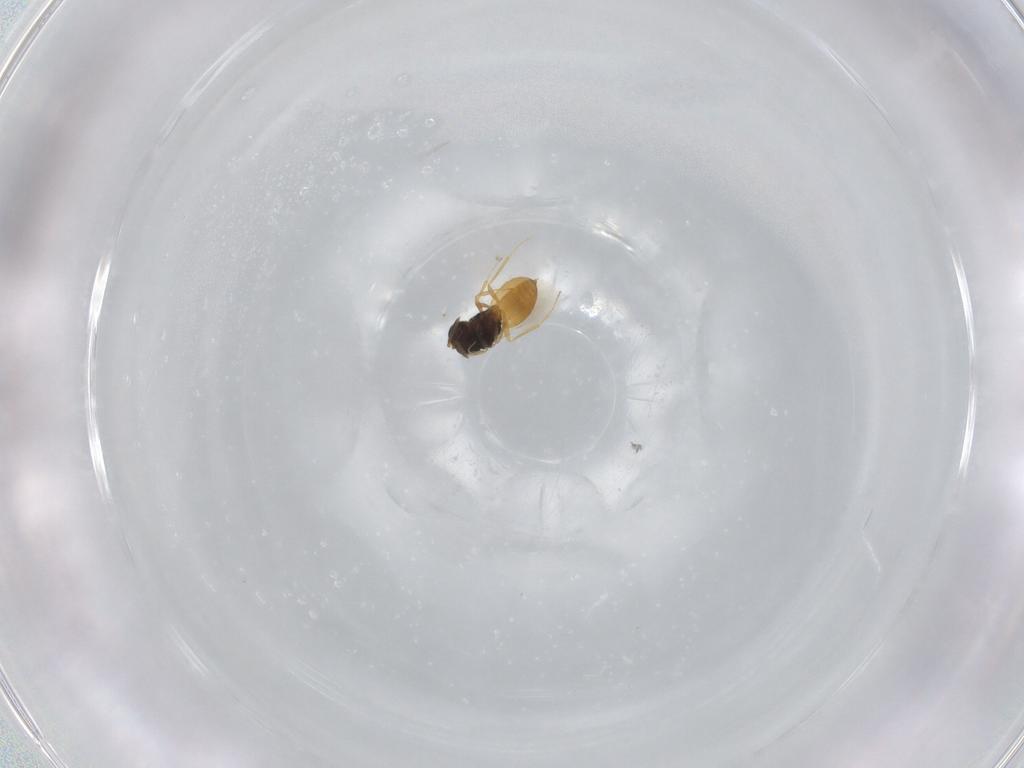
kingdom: Animalia
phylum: Arthropoda
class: Insecta
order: Hymenoptera
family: Scelionidae
